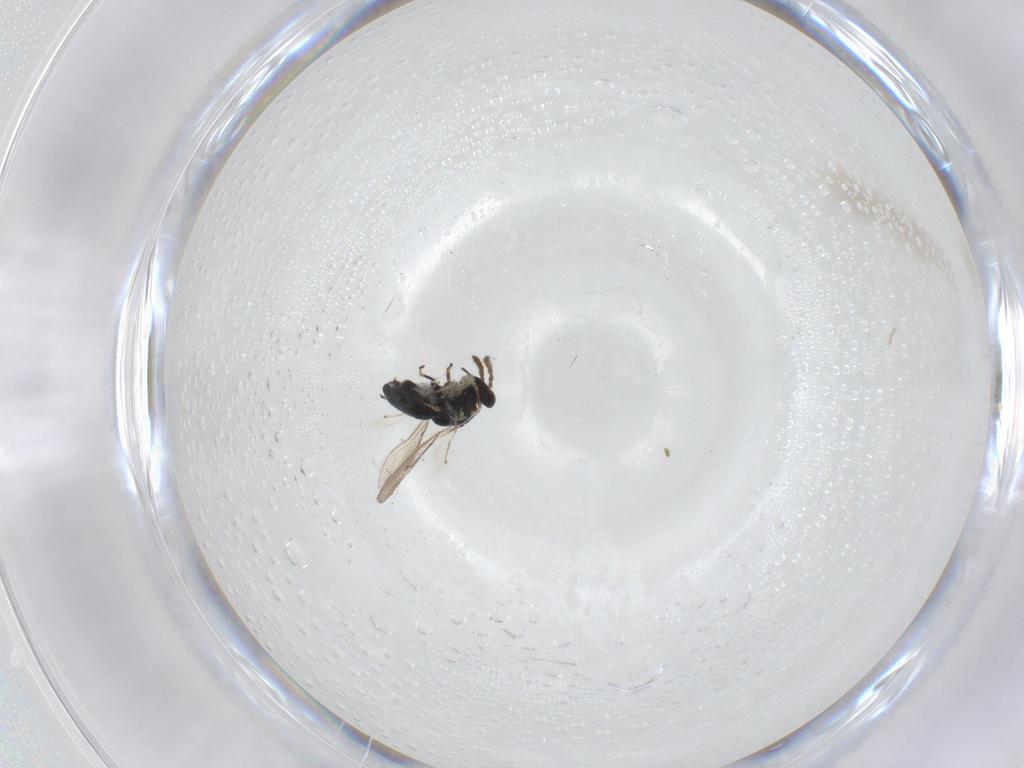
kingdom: Animalia
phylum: Arthropoda
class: Insecta
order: Hymenoptera
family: Eulophidae
